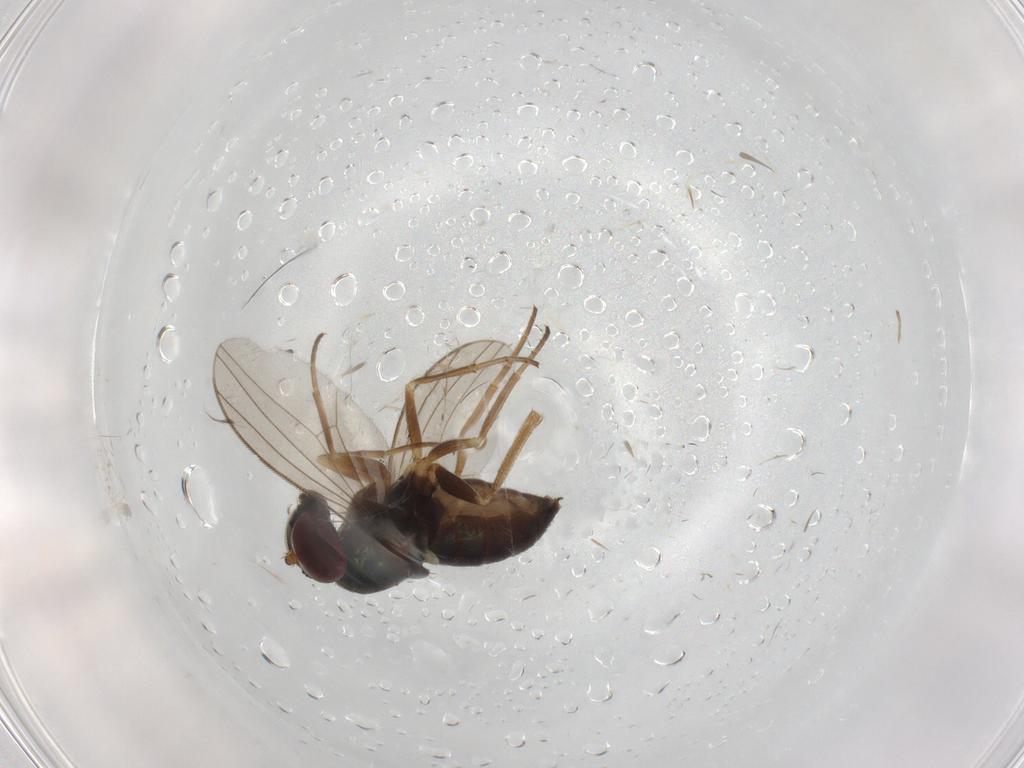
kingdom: Animalia
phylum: Arthropoda
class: Insecta
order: Diptera
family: Dolichopodidae
